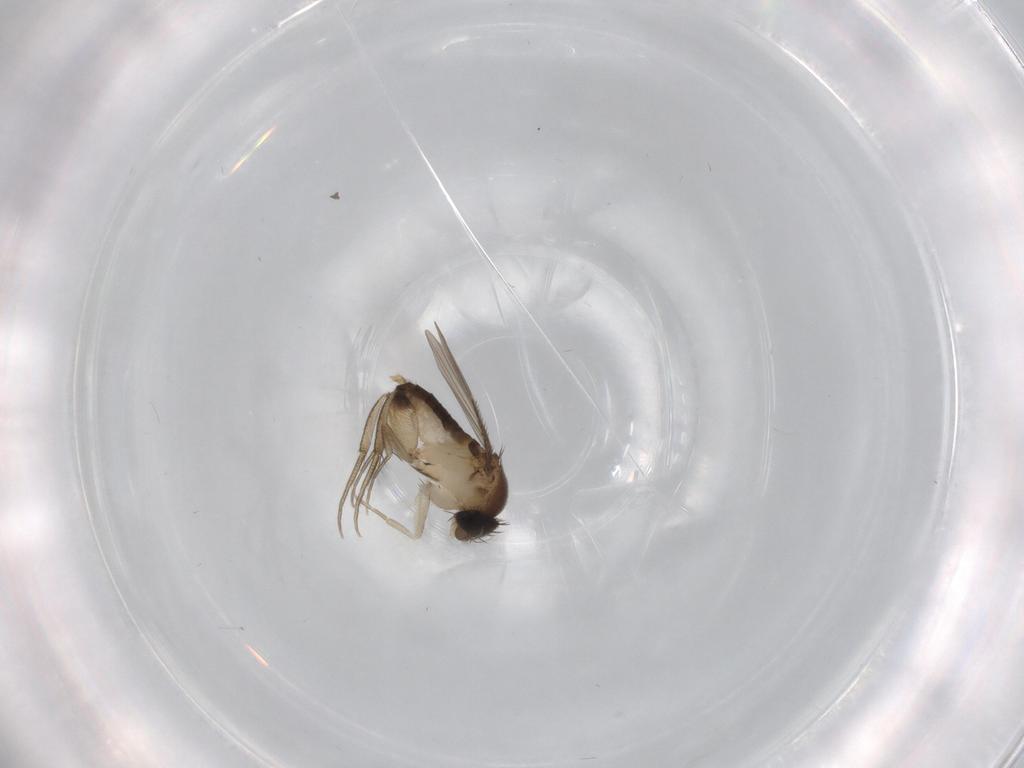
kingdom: Animalia
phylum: Arthropoda
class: Insecta
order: Diptera
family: Phoridae
